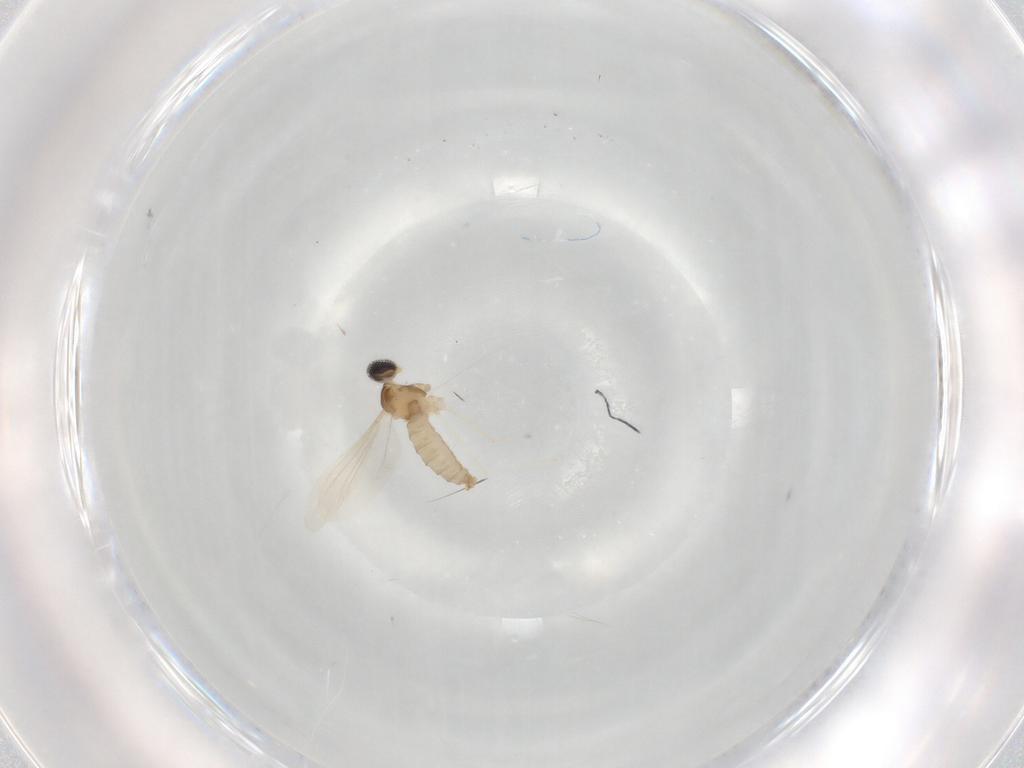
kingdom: Animalia
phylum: Arthropoda
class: Insecta
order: Diptera
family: Cecidomyiidae
